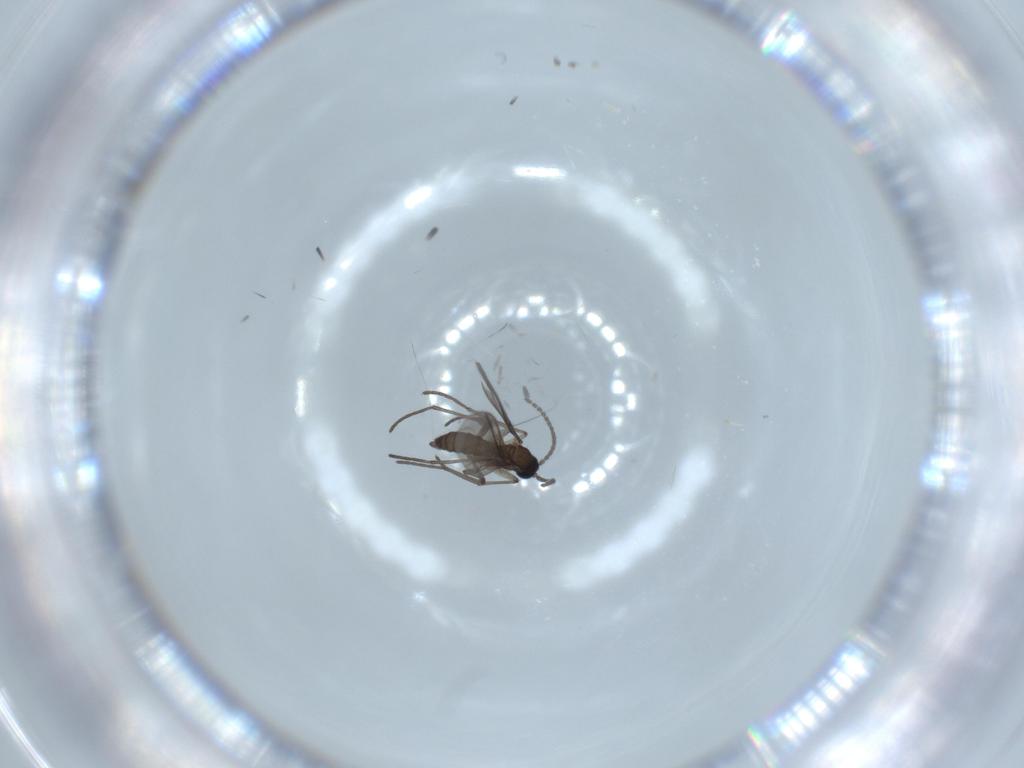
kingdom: Animalia
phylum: Arthropoda
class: Insecta
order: Diptera
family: Sciaridae
